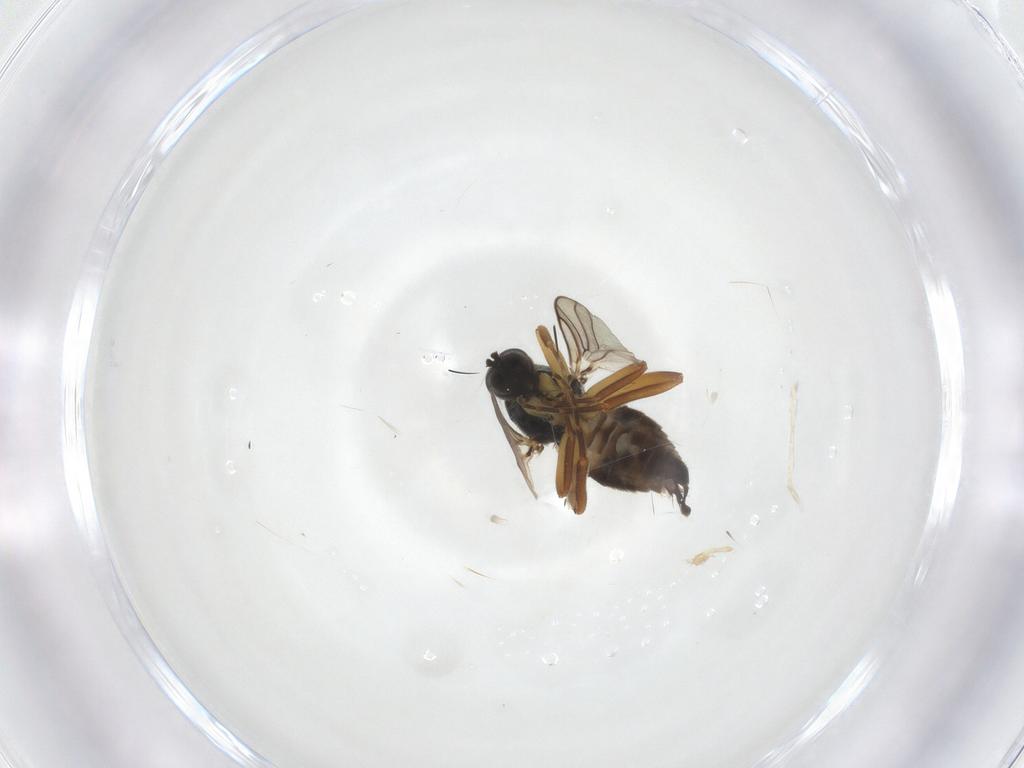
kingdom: Animalia
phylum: Arthropoda
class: Insecta
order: Diptera
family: Hybotidae
